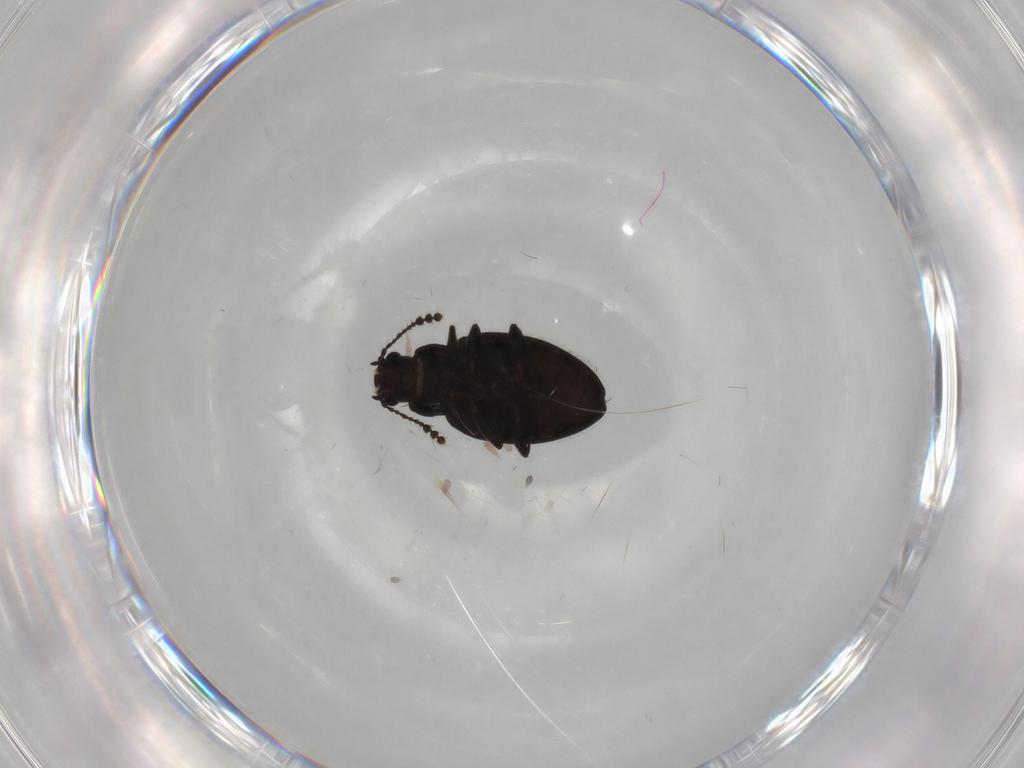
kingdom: Animalia
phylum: Arthropoda
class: Insecta
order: Coleoptera
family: Erotylidae
